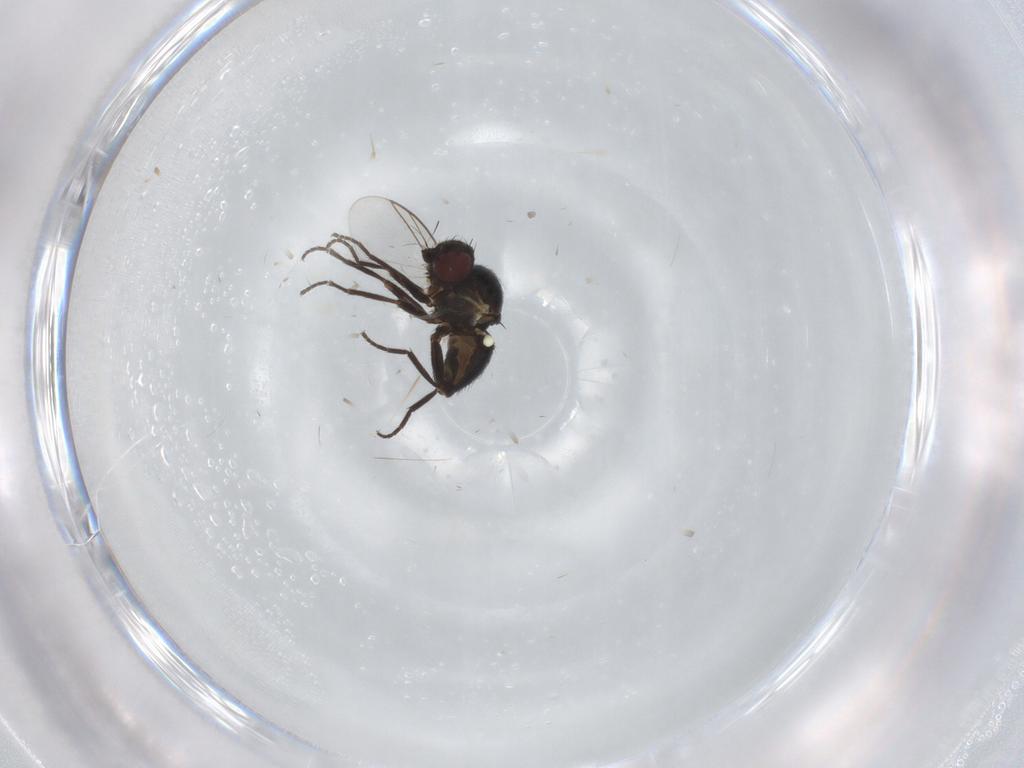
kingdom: Animalia
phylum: Arthropoda
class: Insecta
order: Diptera
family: Agromyzidae
